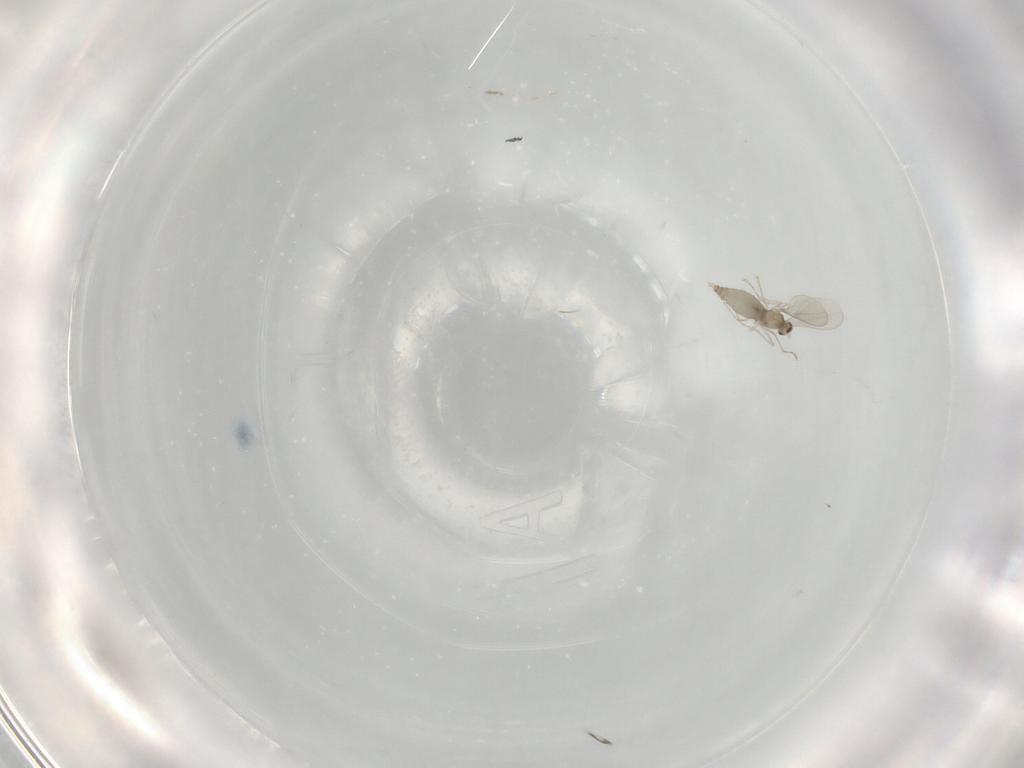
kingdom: Animalia
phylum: Arthropoda
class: Insecta
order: Diptera
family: Cecidomyiidae
